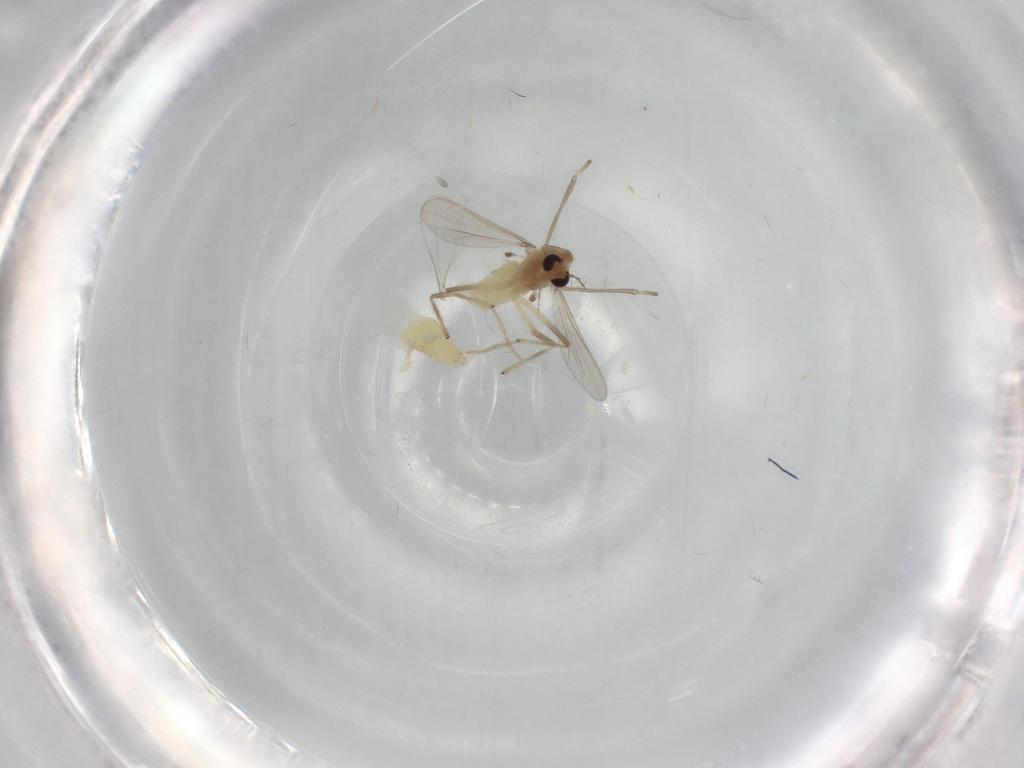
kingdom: Animalia
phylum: Arthropoda
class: Insecta
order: Diptera
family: Chironomidae
